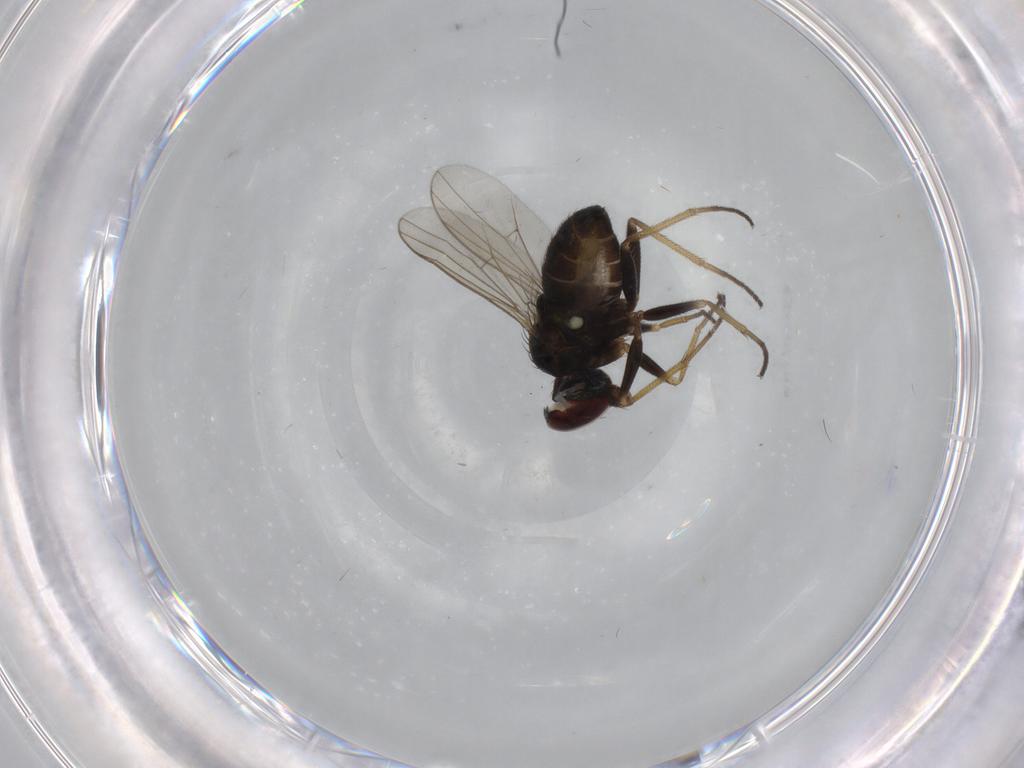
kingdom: Animalia
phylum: Arthropoda
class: Insecta
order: Diptera
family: Dolichopodidae
